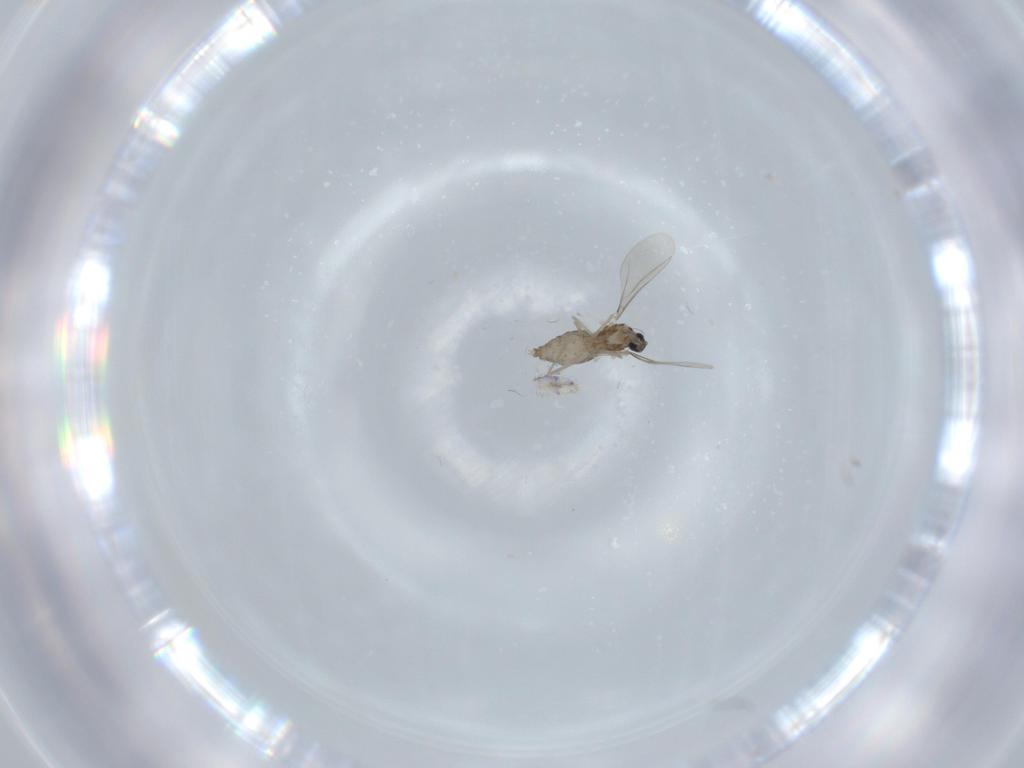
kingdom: Animalia
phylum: Arthropoda
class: Insecta
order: Diptera
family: Cecidomyiidae
